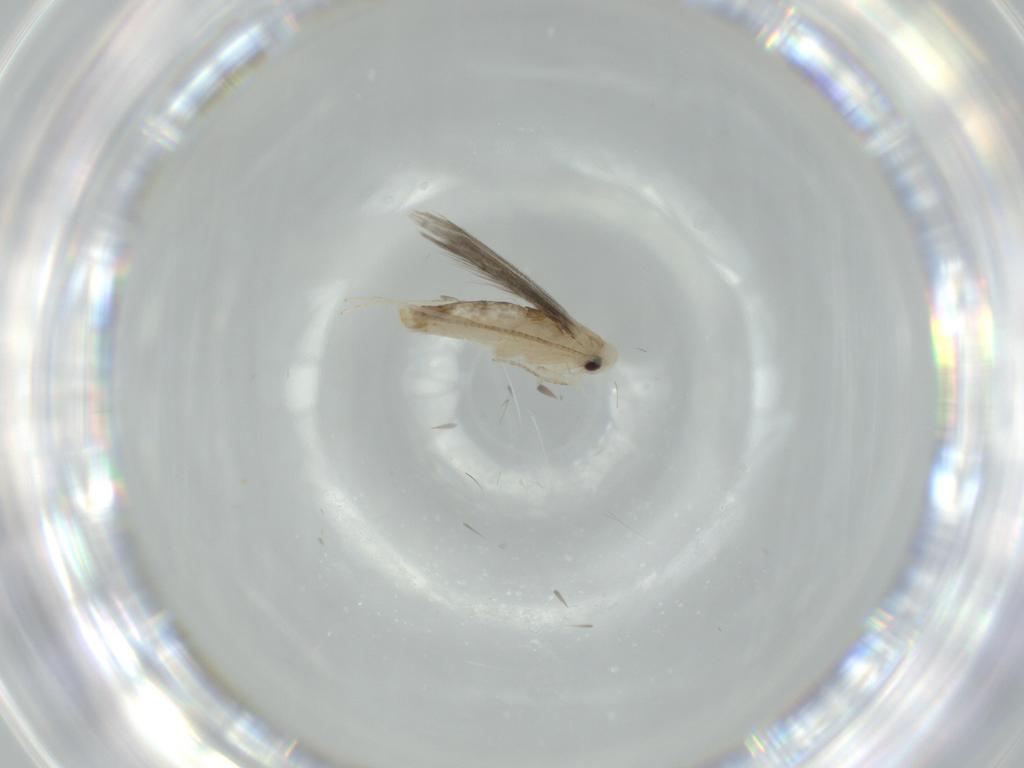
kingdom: Animalia
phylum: Arthropoda
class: Insecta
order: Lepidoptera
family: Gracillariidae
